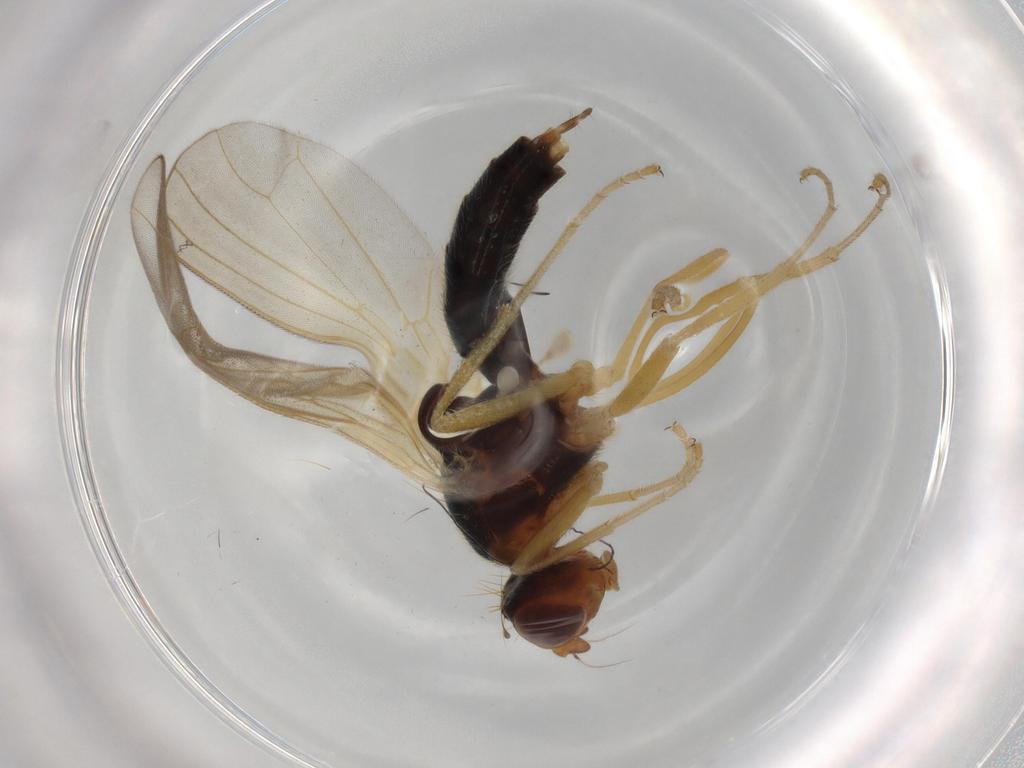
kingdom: Animalia
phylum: Arthropoda
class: Insecta
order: Diptera
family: Hybotidae
